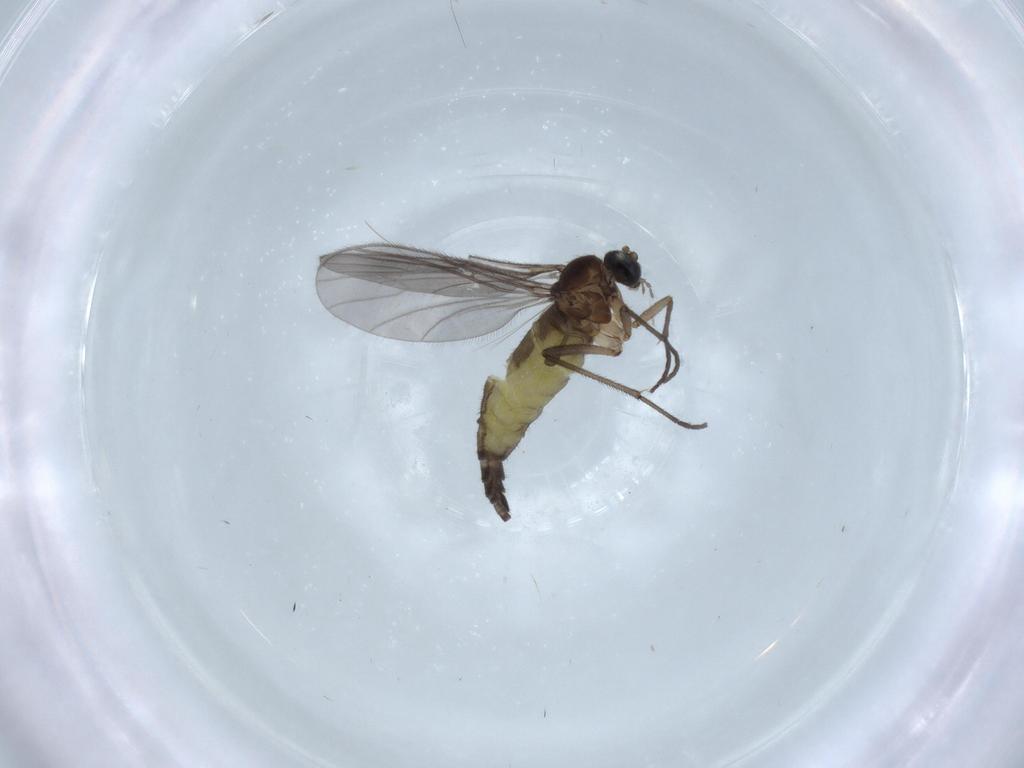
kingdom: Animalia
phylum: Arthropoda
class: Insecta
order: Diptera
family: Sciaridae
